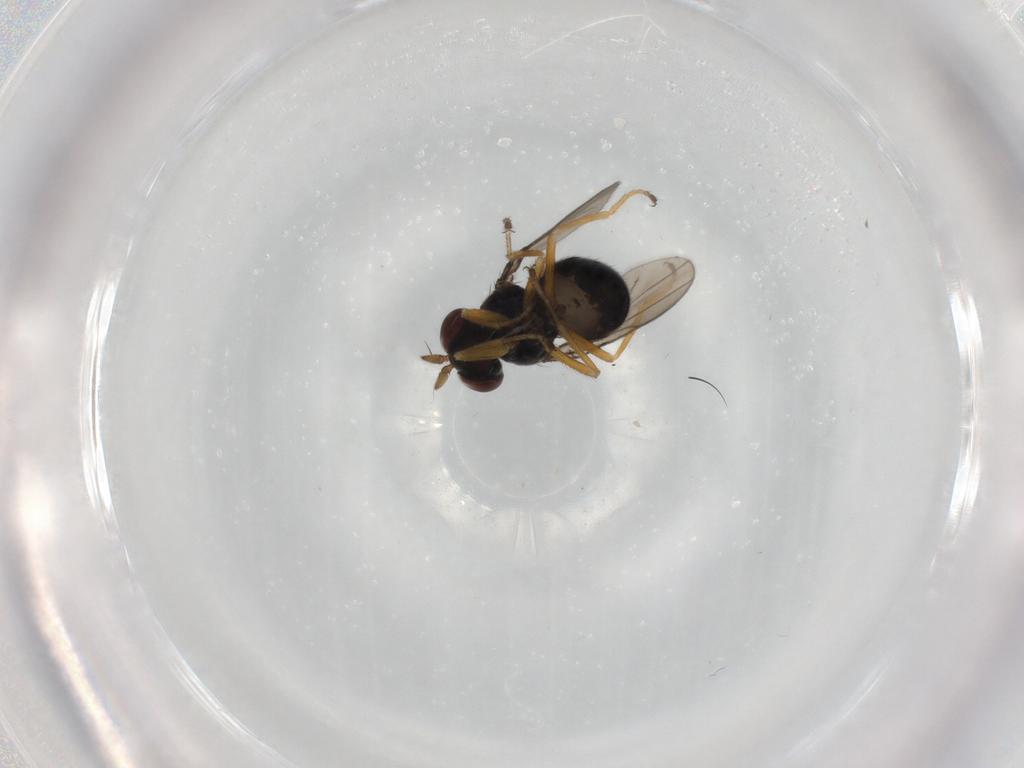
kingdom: Animalia
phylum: Arthropoda
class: Insecta
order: Diptera
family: Ephydridae
